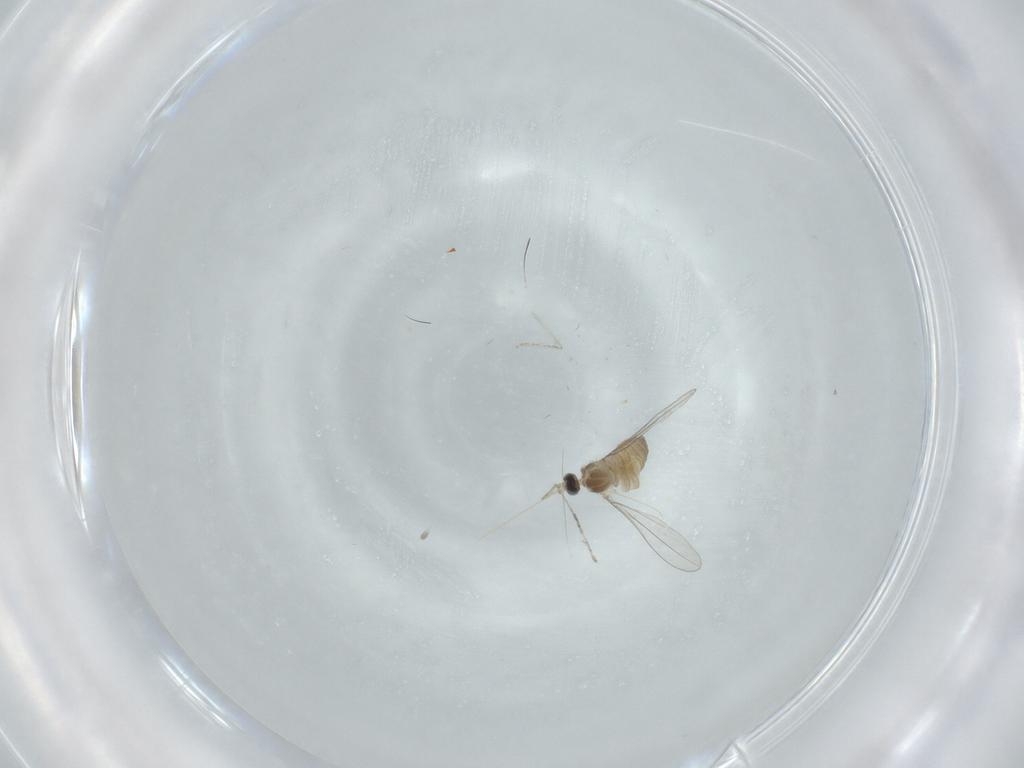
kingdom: Animalia
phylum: Arthropoda
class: Insecta
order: Diptera
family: Cecidomyiidae
